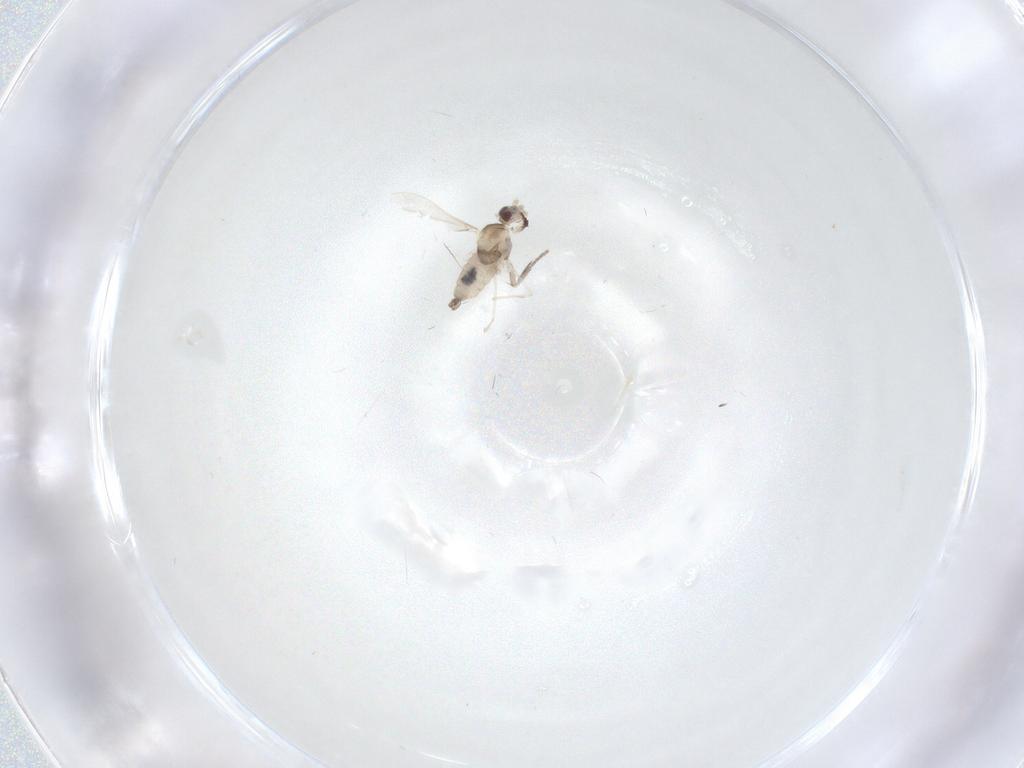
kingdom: Animalia
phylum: Arthropoda
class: Insecta
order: Diptera
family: Cecidomyiidae
